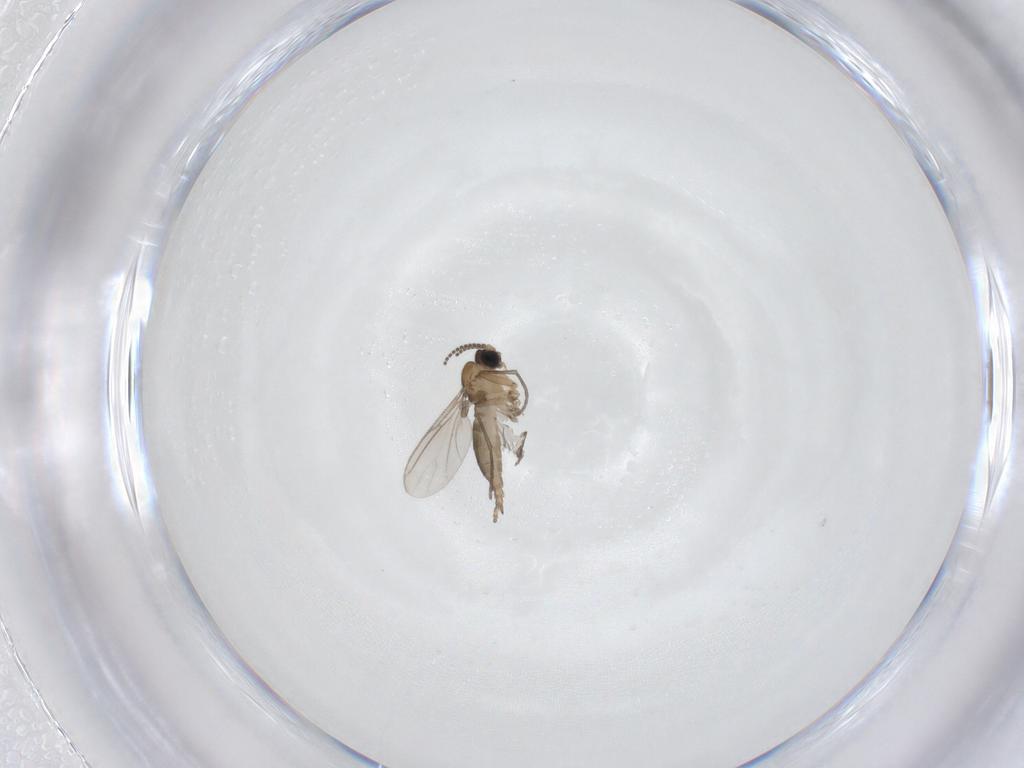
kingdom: Animalia
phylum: Arthropoda
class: Insecta
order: Diptera
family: Sciaridae
